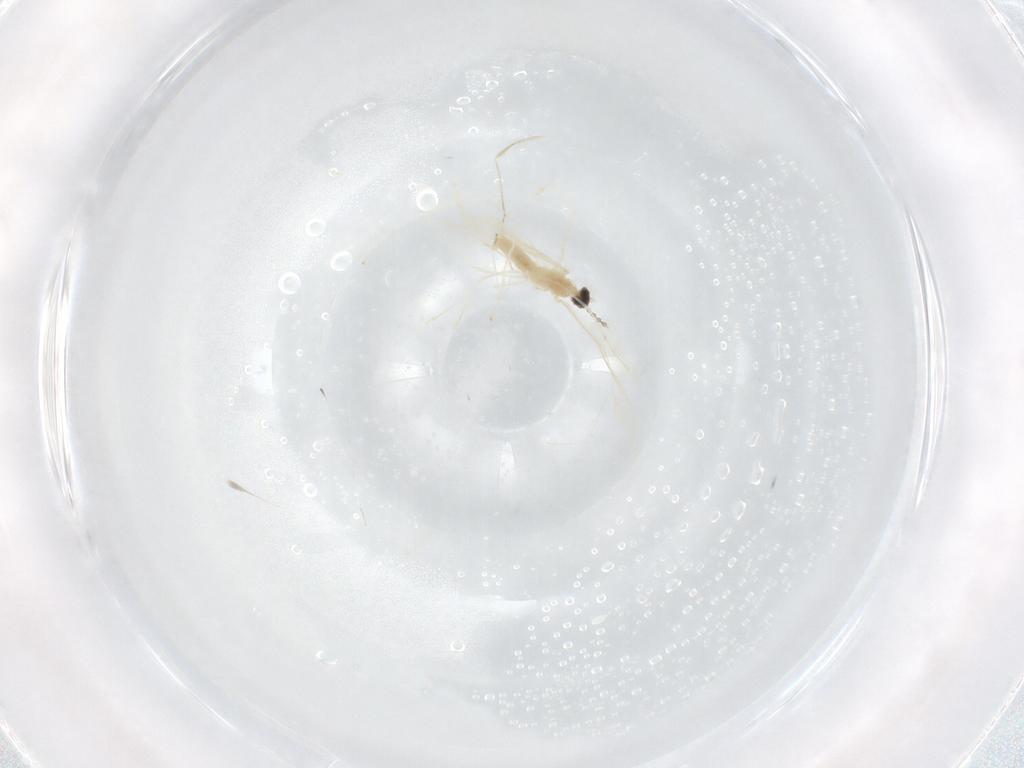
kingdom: Animalia
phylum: Arthropoda
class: Insecta
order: Diptera
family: Cecidomyiidae
